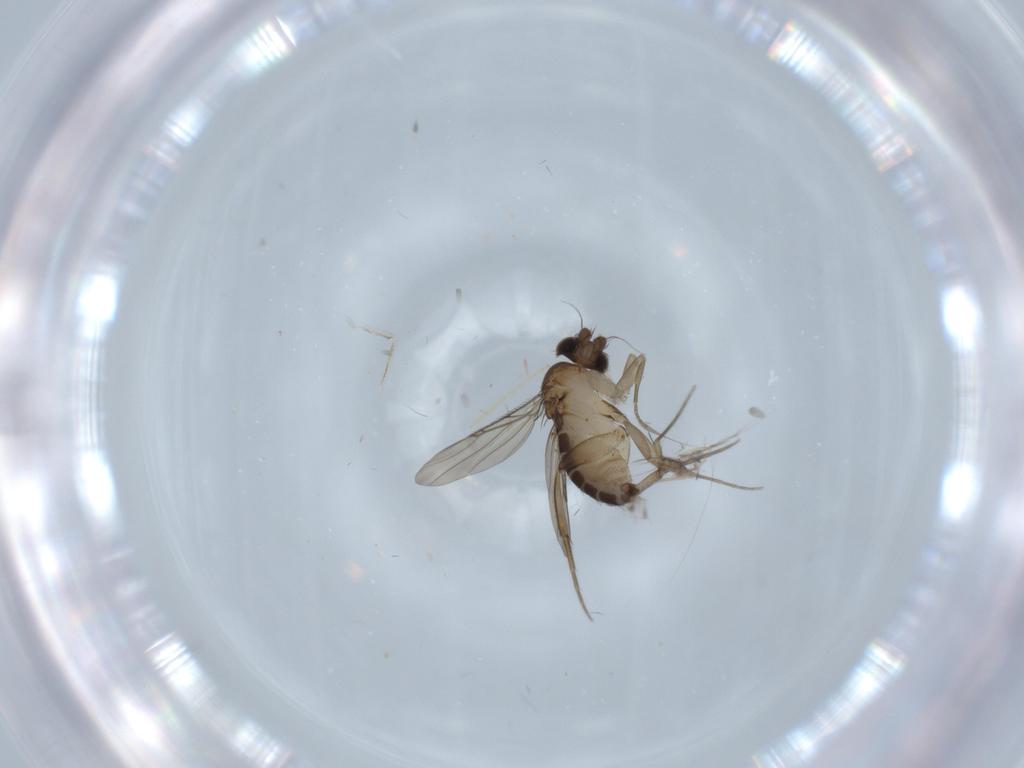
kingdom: Animalia
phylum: Arthropoda
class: Insecta
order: Diptera
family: Phoridae
